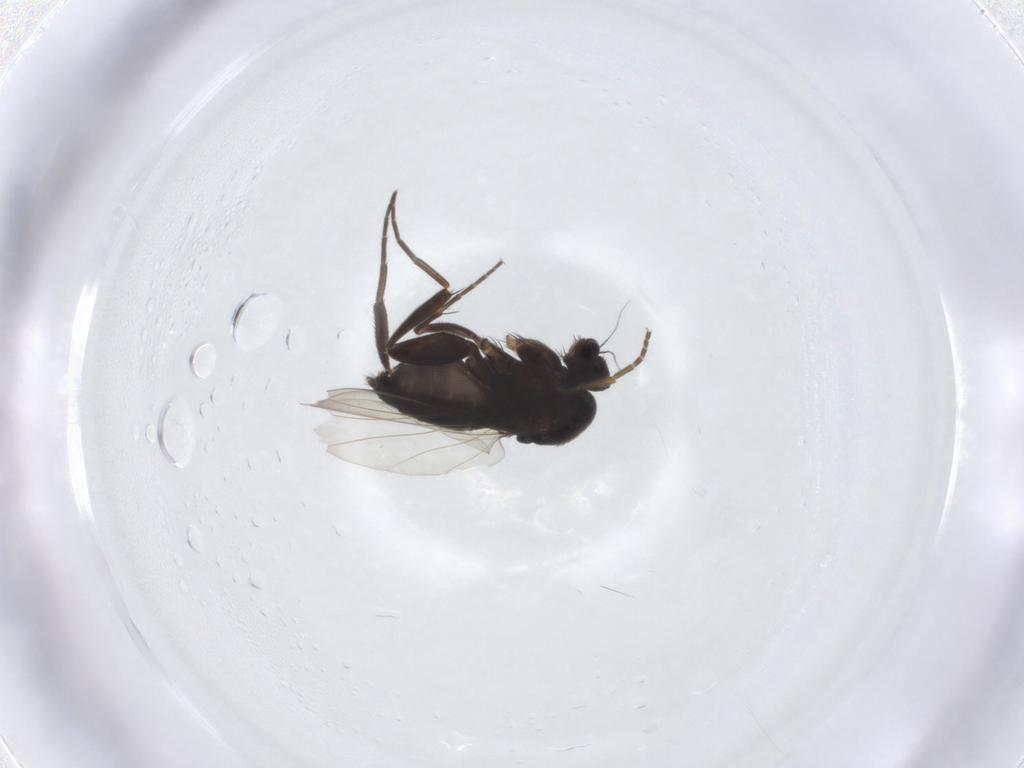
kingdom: Animalia
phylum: Arthropoda
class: Insecta
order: Diptera
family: Phoridae
